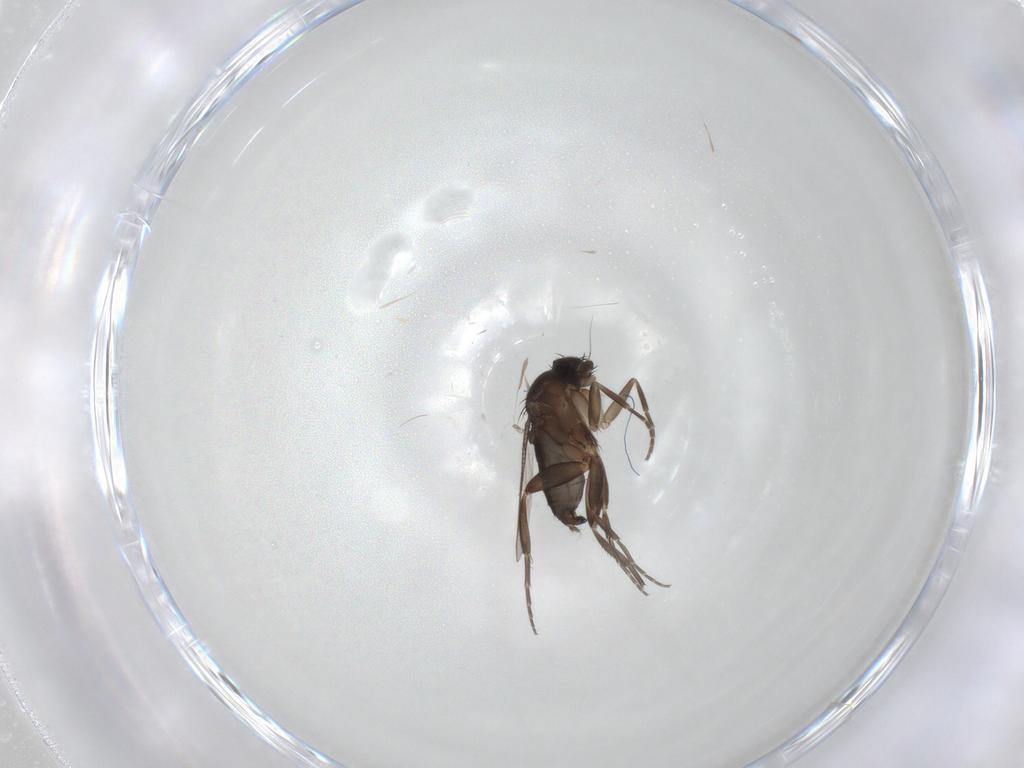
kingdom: Animalia
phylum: Arthropoda
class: Insecta
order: Diptera
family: Phoridae
